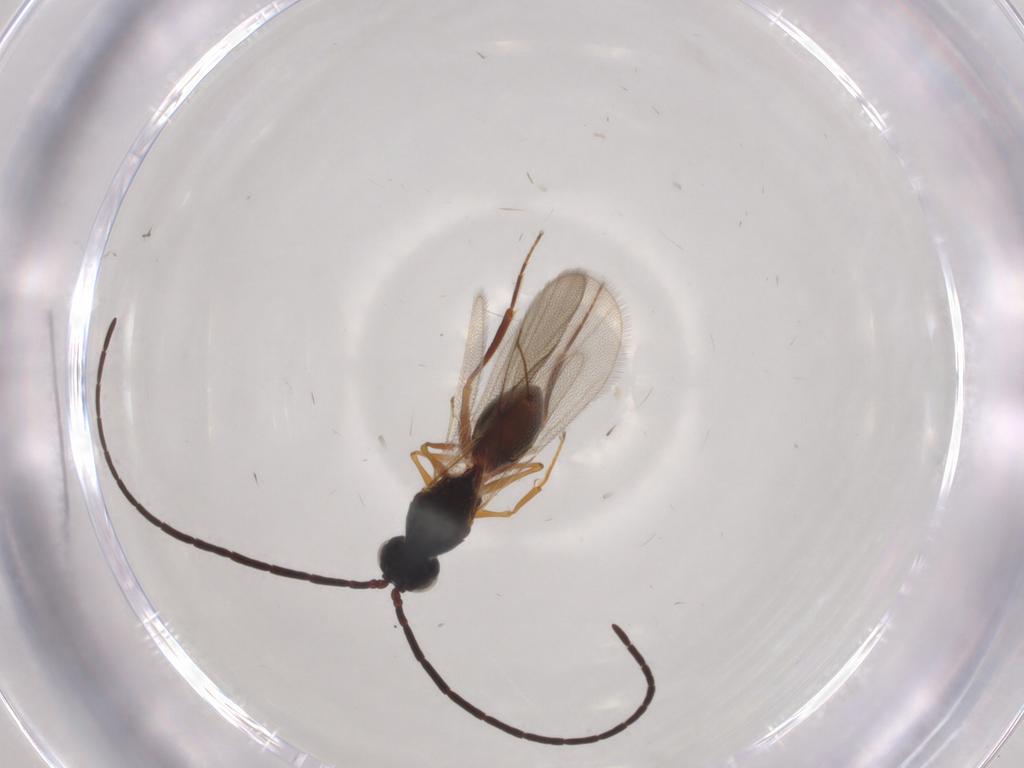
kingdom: Animalia
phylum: Arthropoda
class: Insecta
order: Hymenoptera
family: Figitidae
